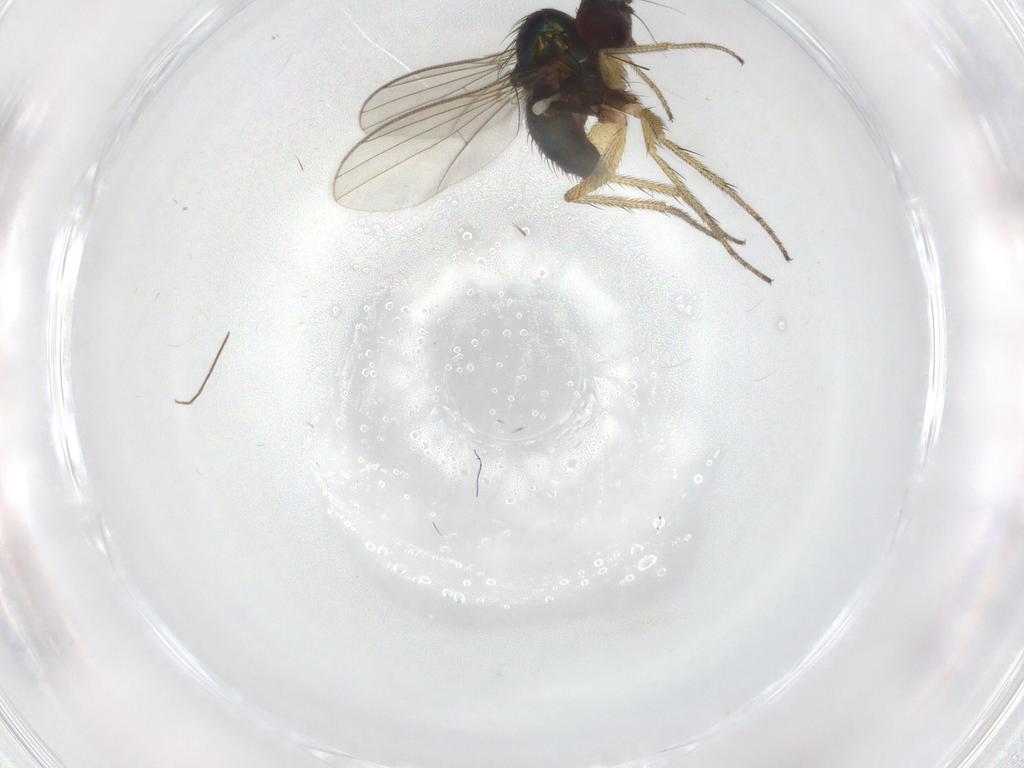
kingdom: Animalia
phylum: Arthropoda
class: Insecta
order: Diptera
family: Dolichopodidae
